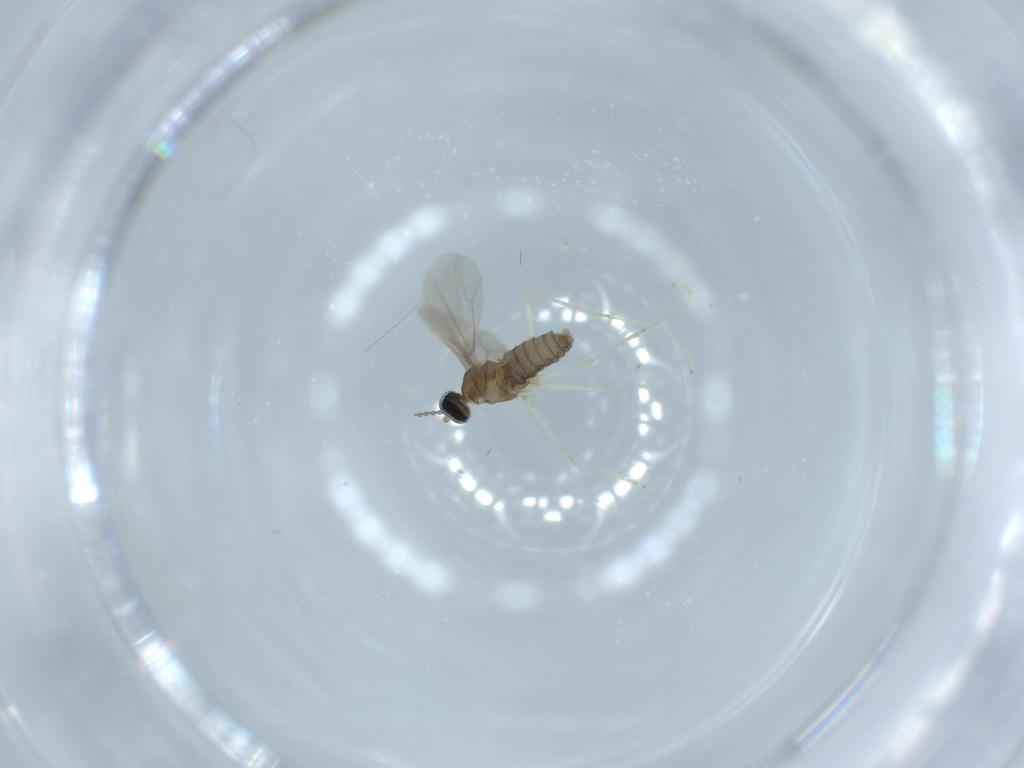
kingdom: Animalia
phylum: Arthropoda
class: Insecta
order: Diptera
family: Cecidomyiidae
